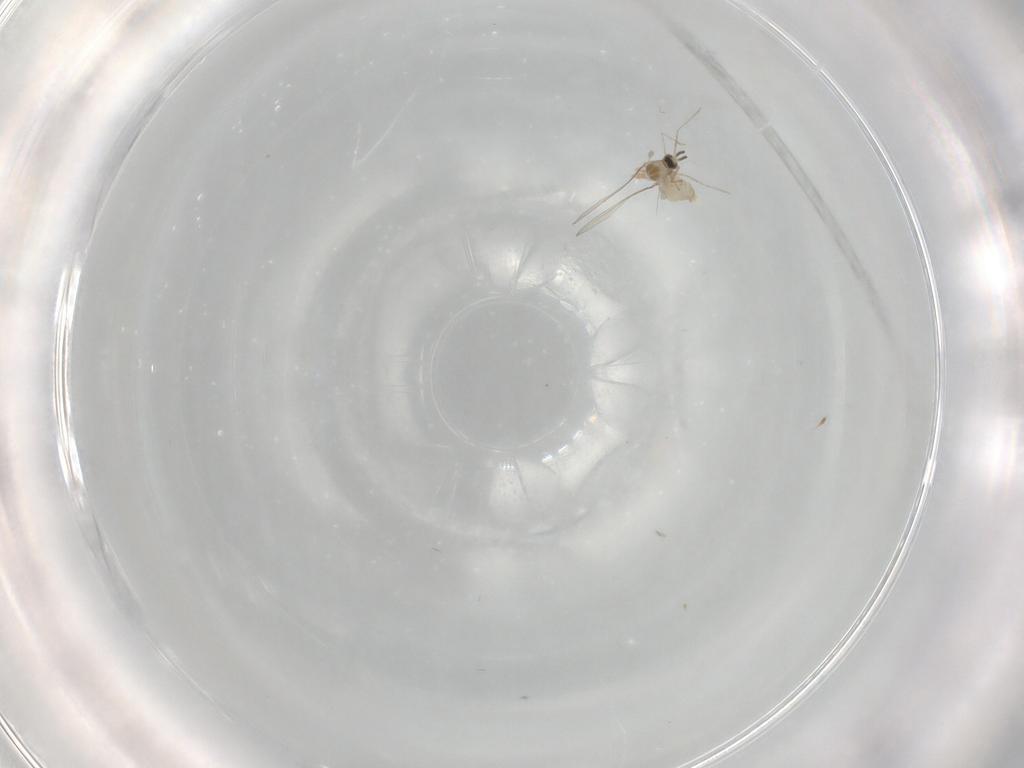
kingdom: Animalia
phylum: Arthropoda
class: Insecta
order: Diptera
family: Cecidomyiidae
